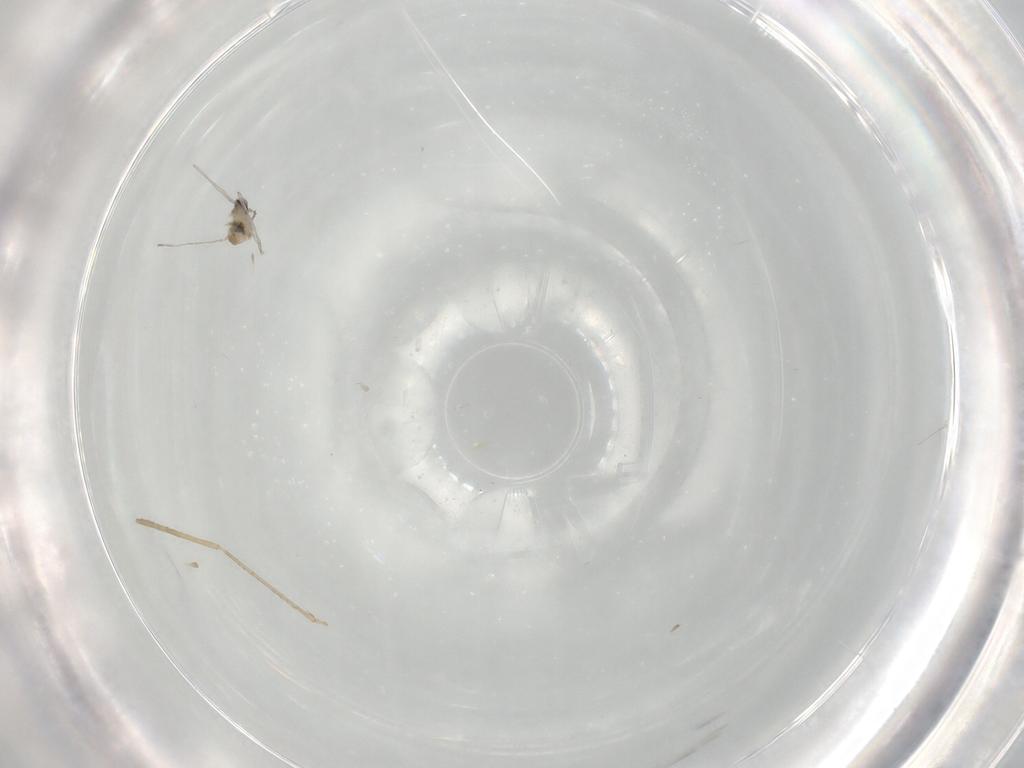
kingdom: Animalia
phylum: Arthropoda
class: Insecta
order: Diptera
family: Cecidomyiidae
